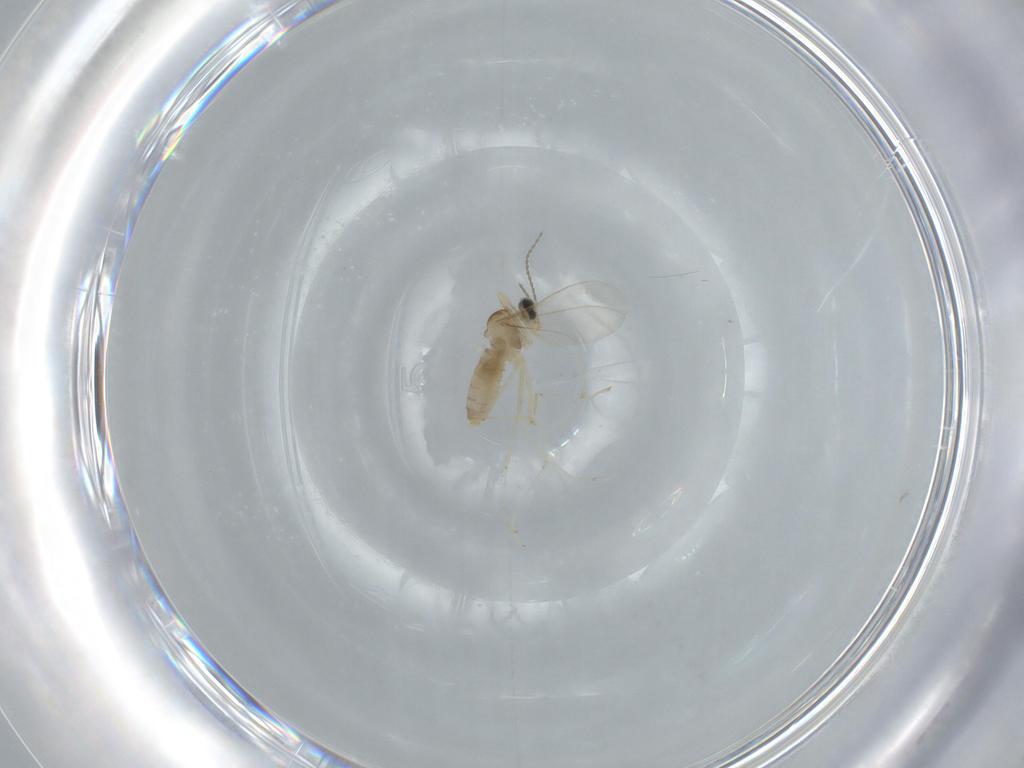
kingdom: Animalia
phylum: Arthropoda
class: Insecta
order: Diptera
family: Cecidomyiidae
